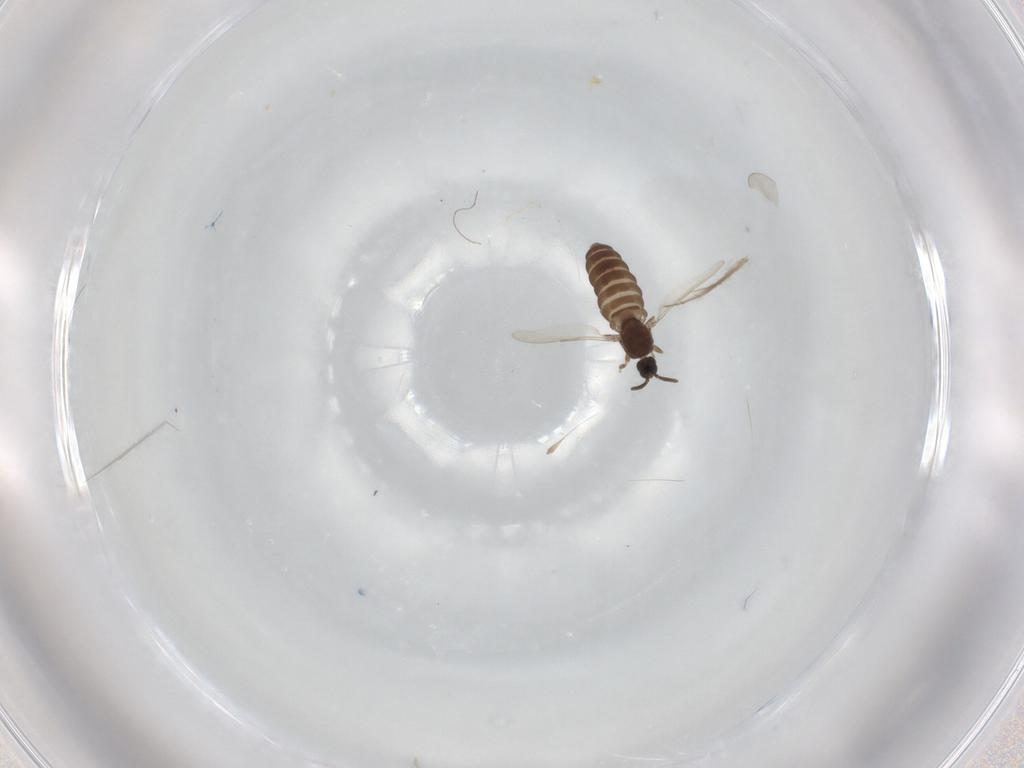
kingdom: Animalia
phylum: Arthropoda
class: Insecta
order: Diptera
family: Scatopsidae
